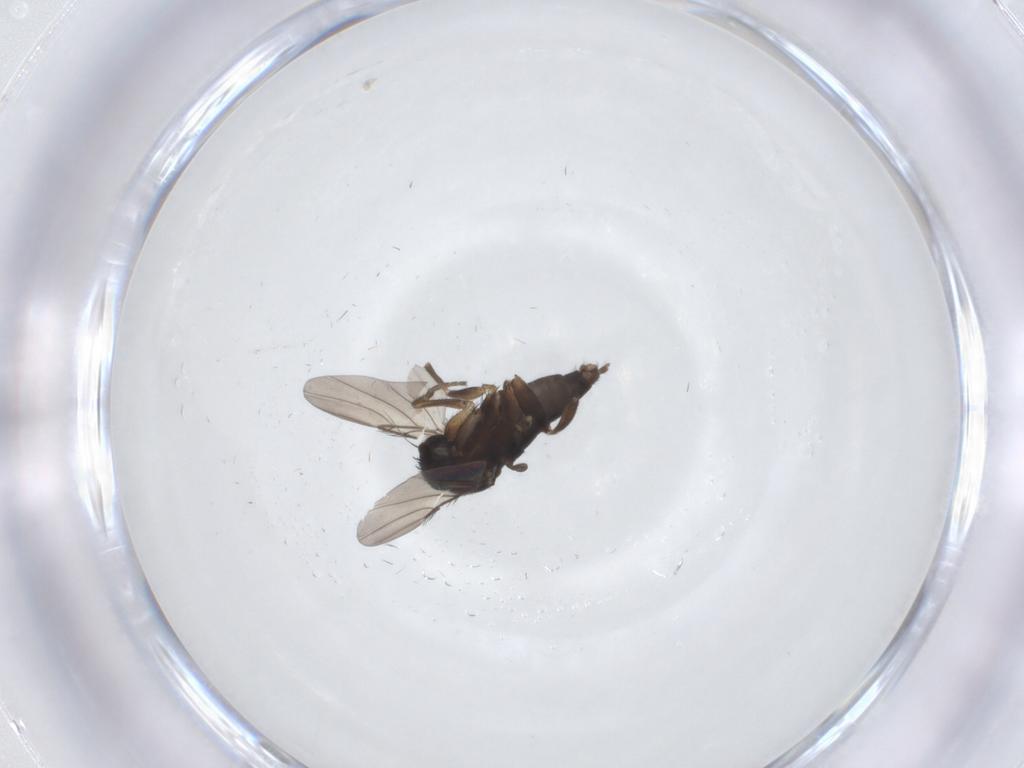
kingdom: Animalia
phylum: Arthropoda
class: Insecta
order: Diptera
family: Phoridae
